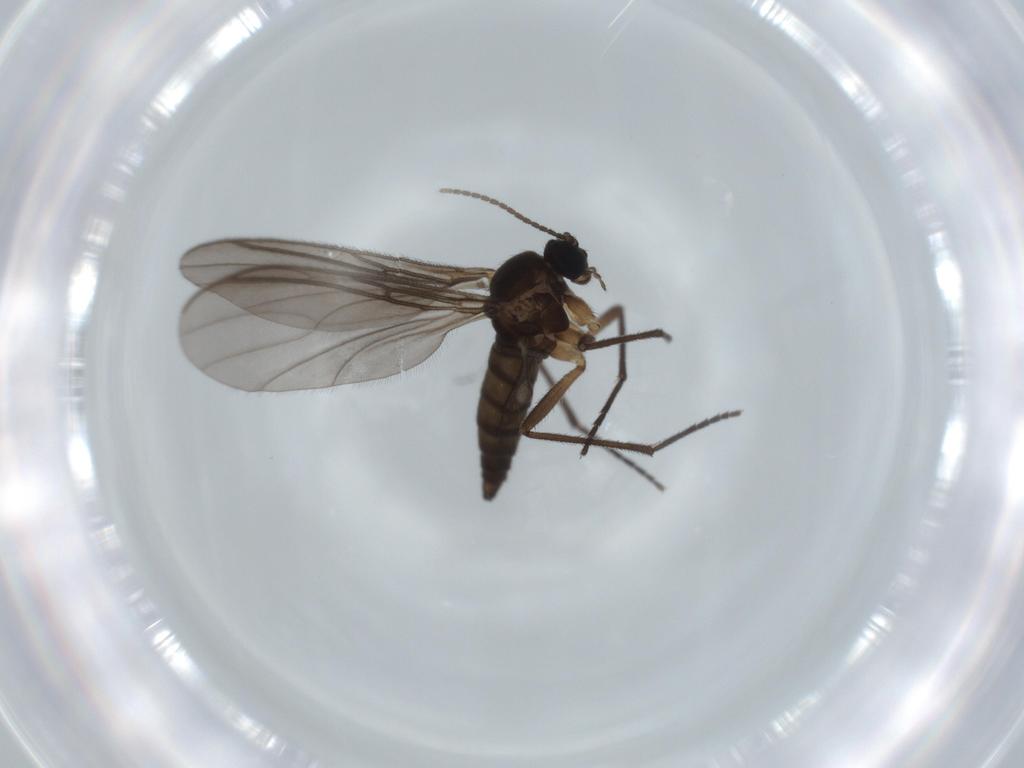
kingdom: Animalia
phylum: Arthropoda
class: Insecta
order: Diptera
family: Sciaridae
